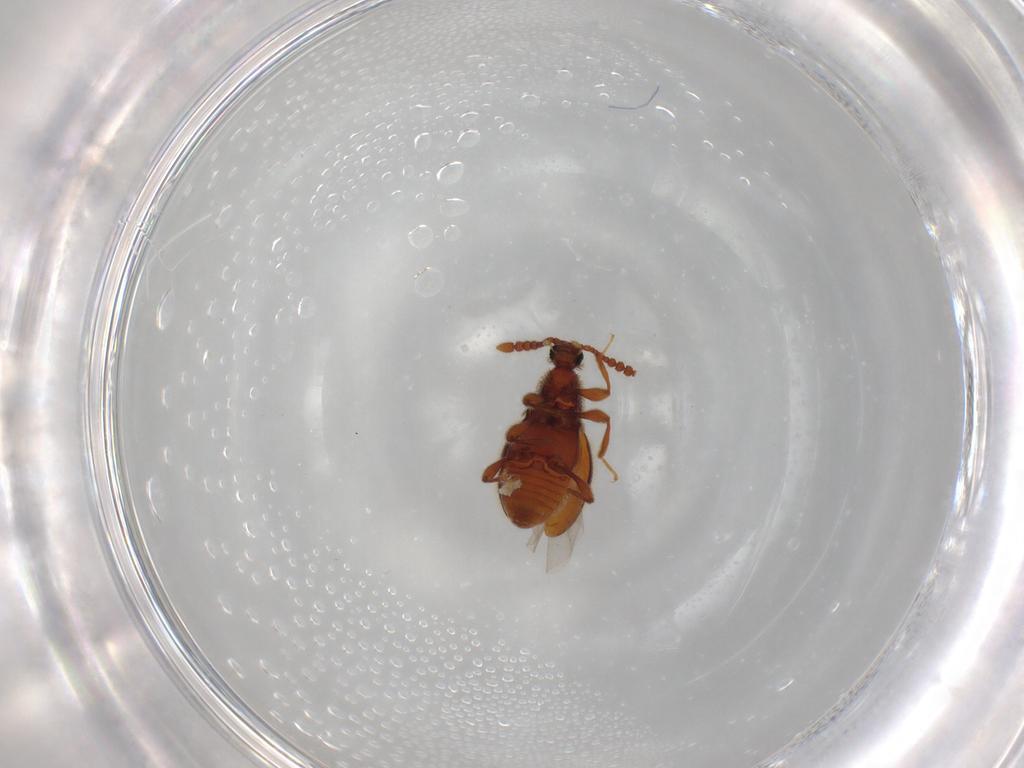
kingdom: Animalia
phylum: Arthropoda
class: Insecta
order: Coleoptera
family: Staphylinidae
